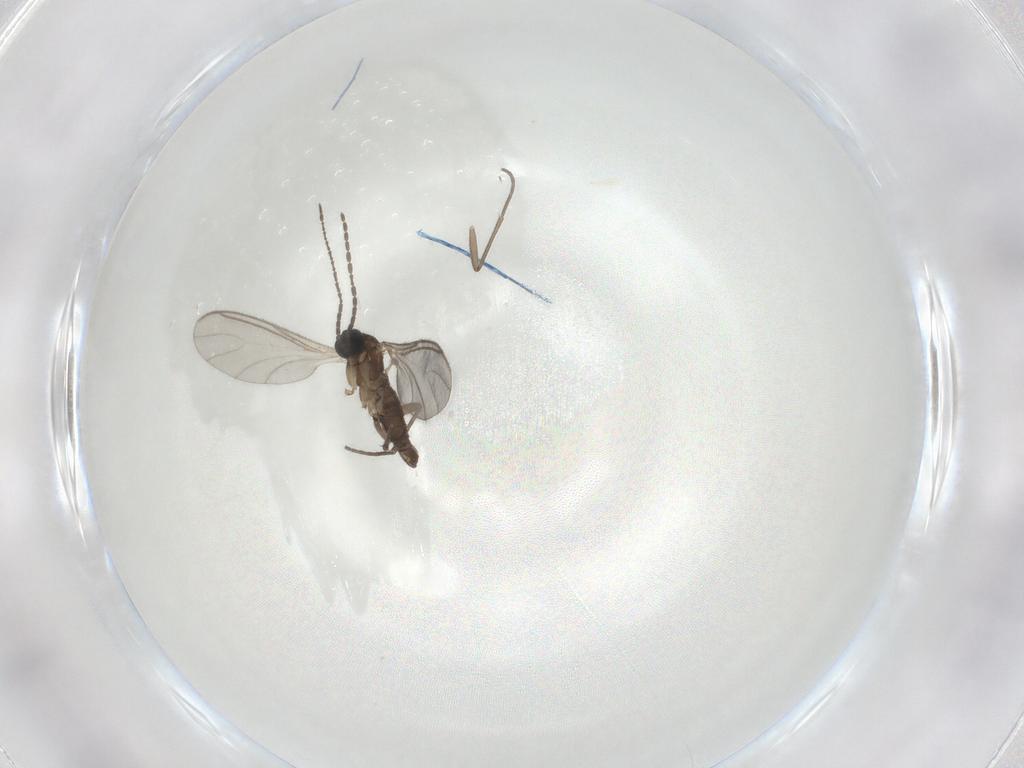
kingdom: Animalia
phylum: Arthropoda
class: Insecta
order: Diptera
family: Sciaridae
